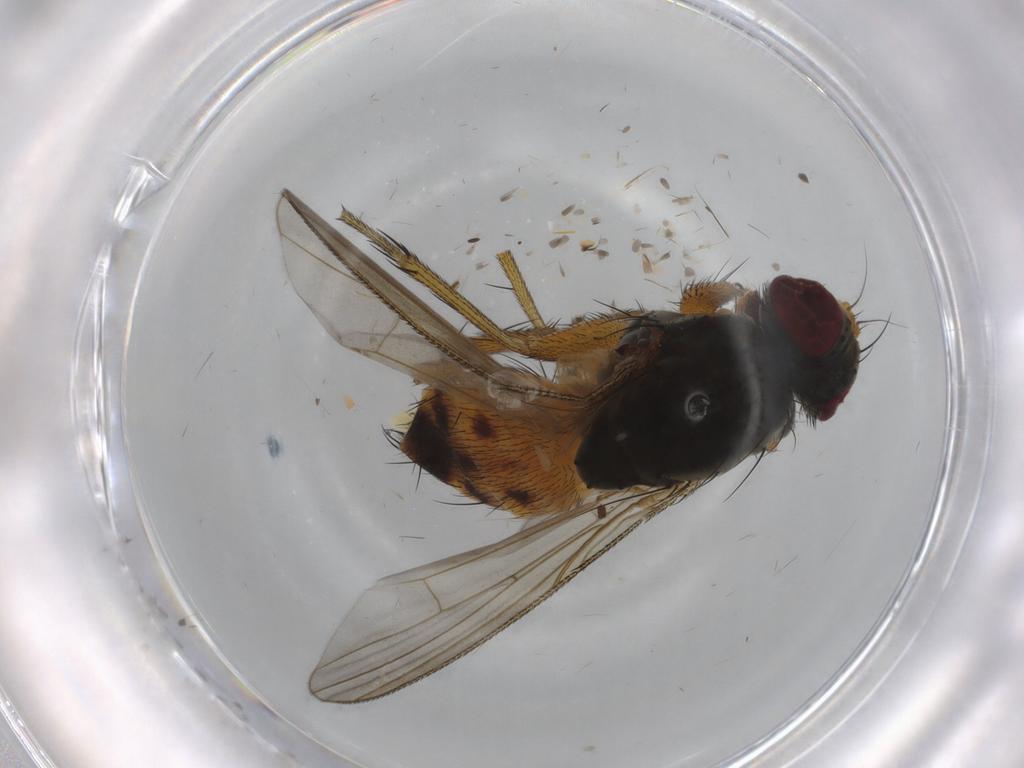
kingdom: Animalia
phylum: Arthropoda
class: Insecta
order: Diptera
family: Muscidae
